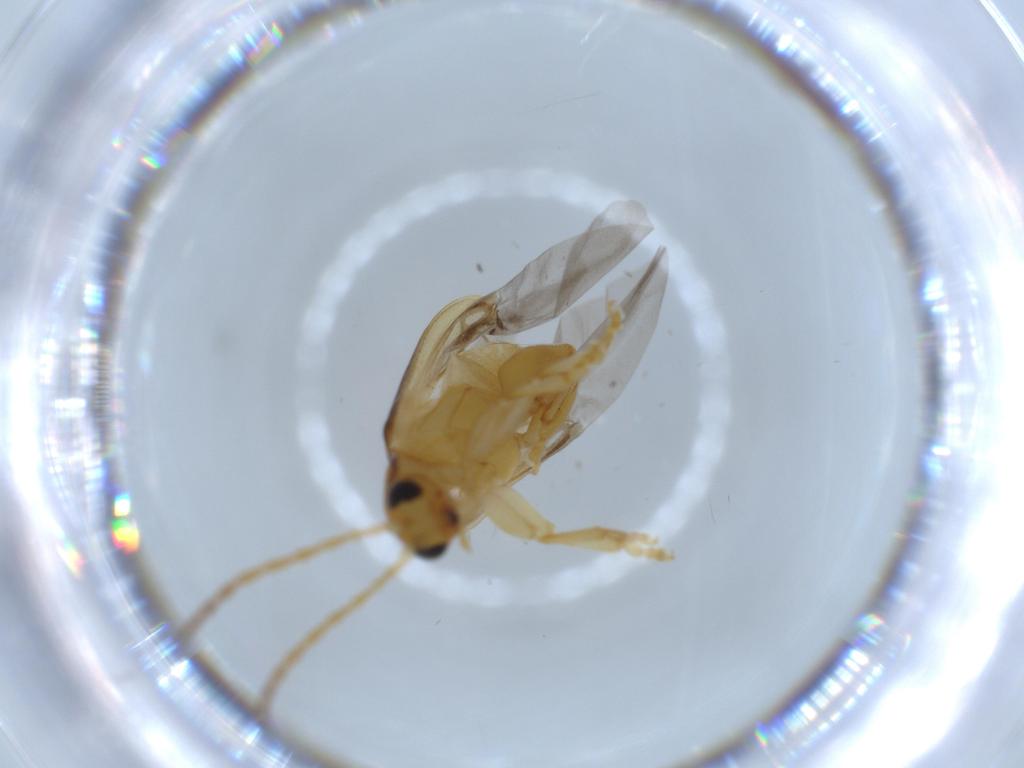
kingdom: Animalia
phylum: Arthropoda
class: Insecta
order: Coleoptera
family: Chrysomelidae
